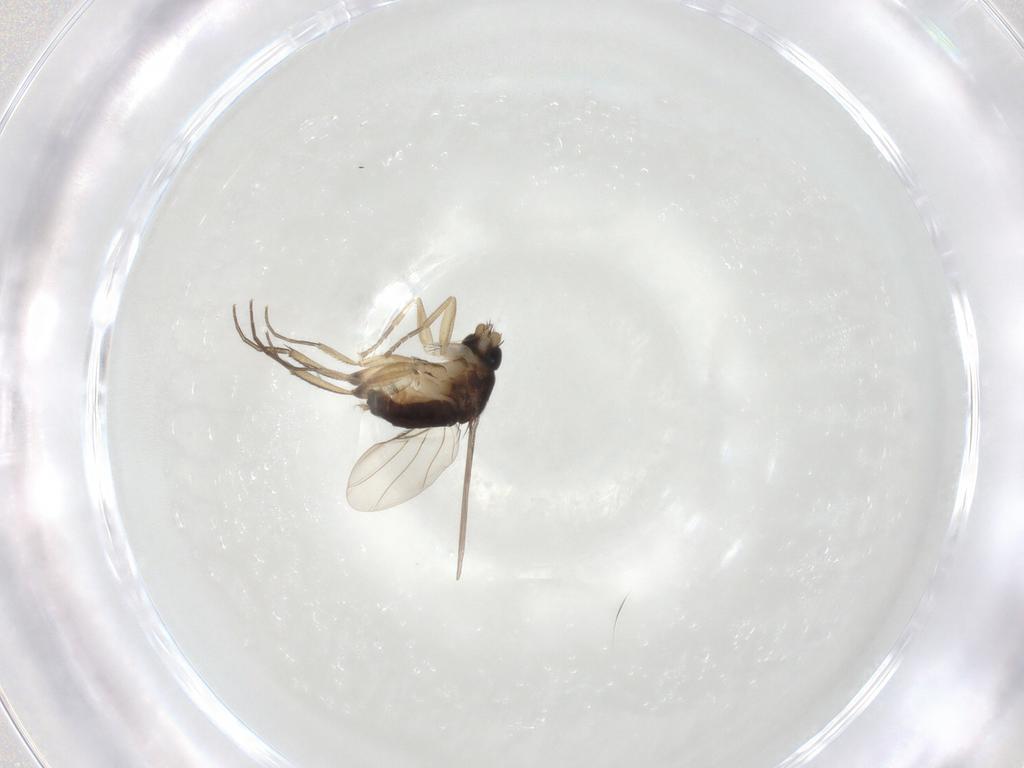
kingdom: Animalia
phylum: Arthropoda
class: Insecta
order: Diptera
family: Phoridae
